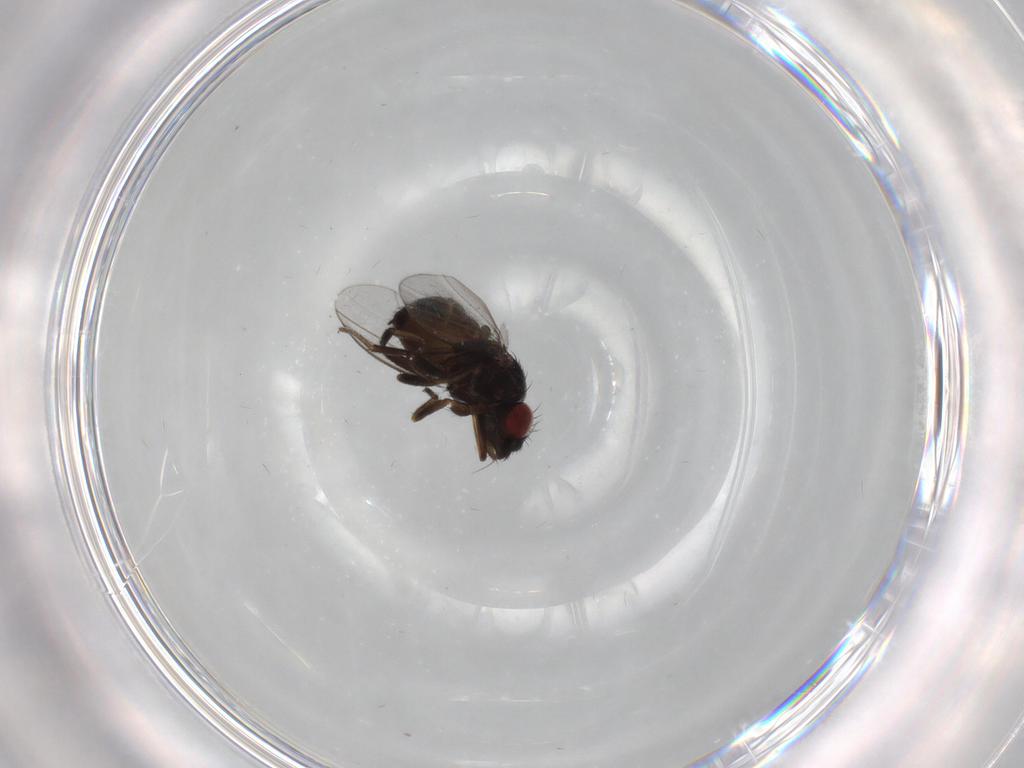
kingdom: Animalia
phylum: Arthropoda
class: Insecta
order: Diptera
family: Milichiidae
